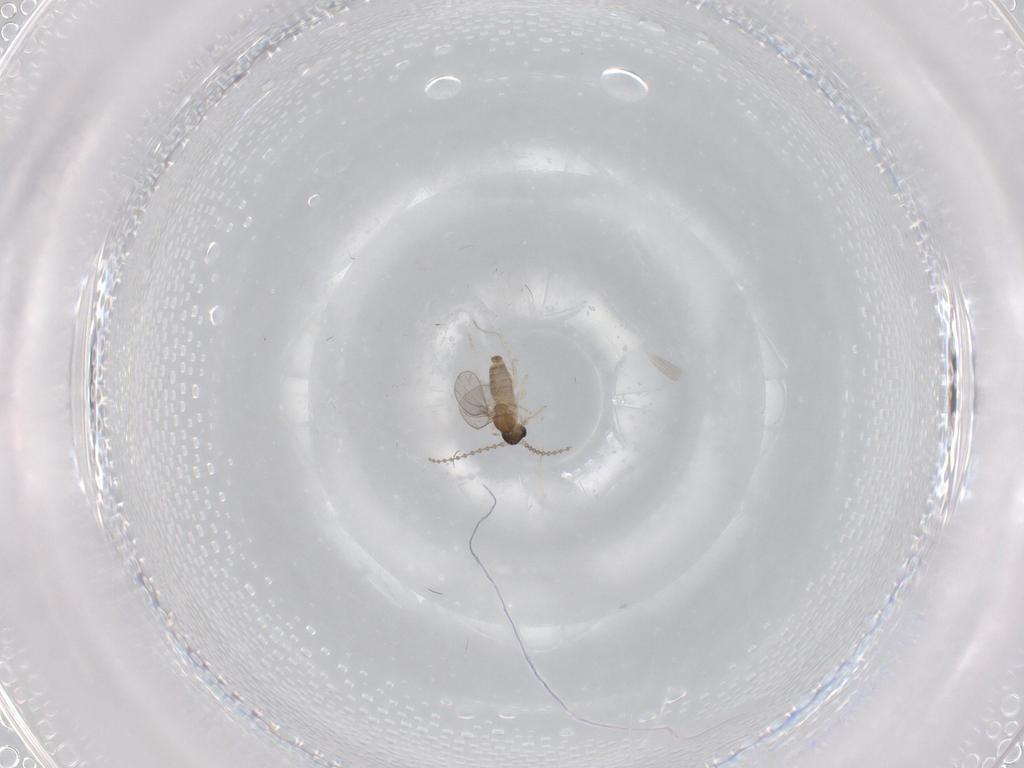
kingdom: Animalia
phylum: Arthropoda
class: Insecta
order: Diptera
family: Cecidomyiidae
